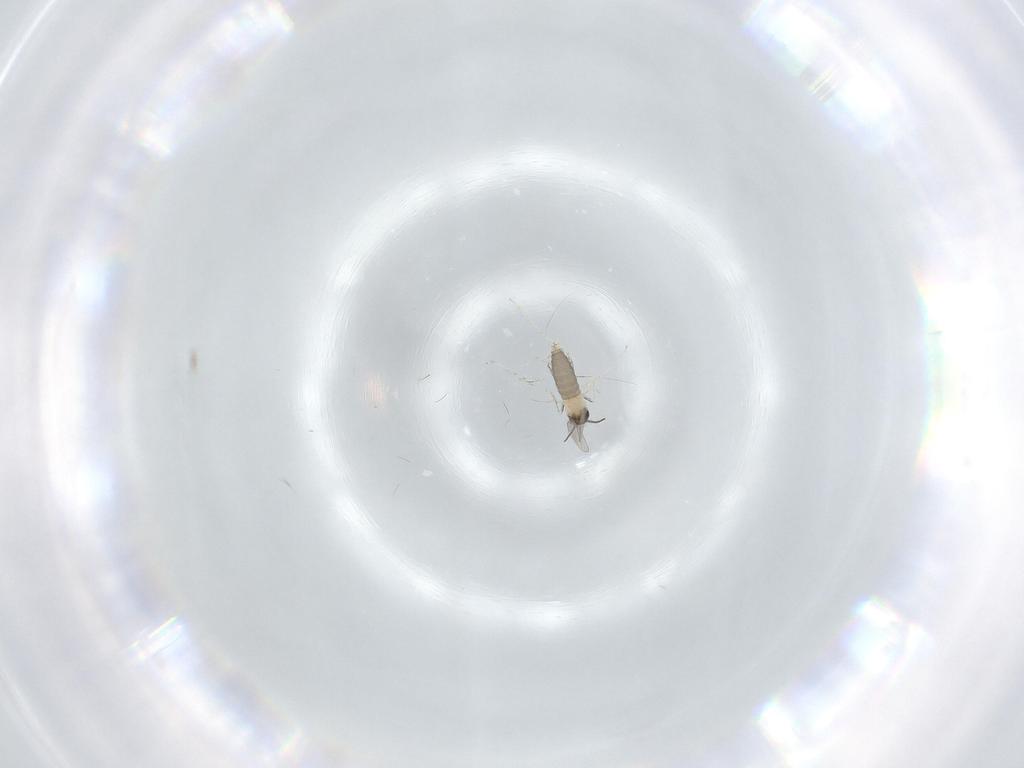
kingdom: Animalia
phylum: Arthropoda
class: Insecta
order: Diptera
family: Cecidomyiidae
